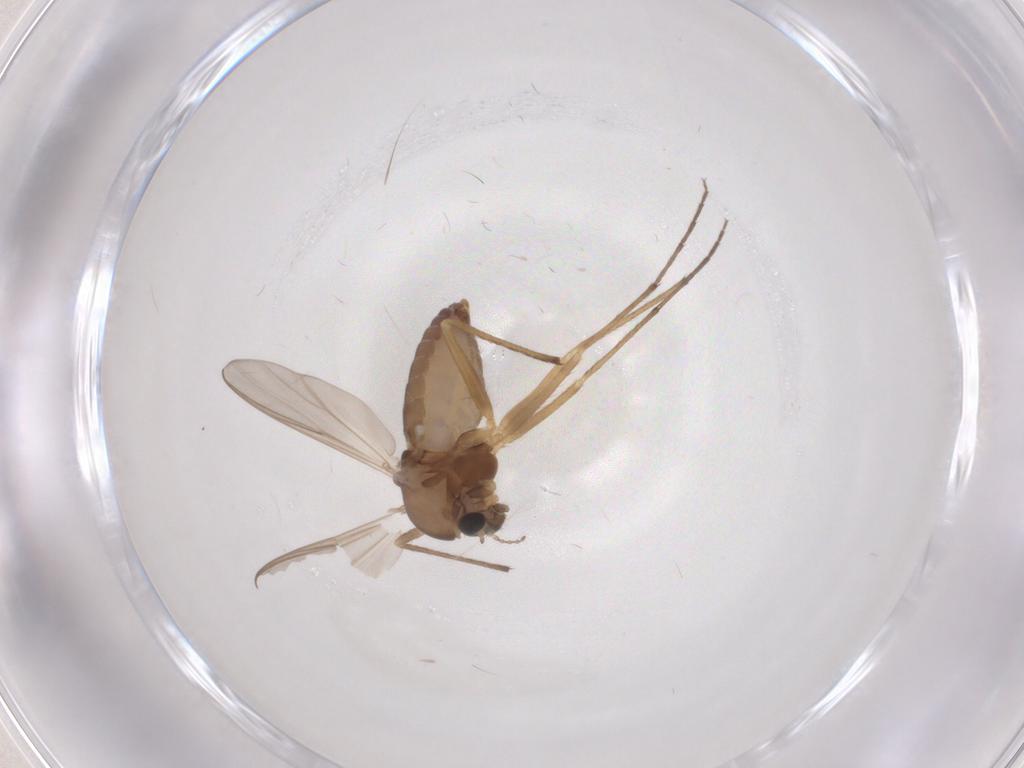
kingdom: Animalia
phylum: Arthropoda
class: Insecta
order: Diptera
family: Chironomidae
